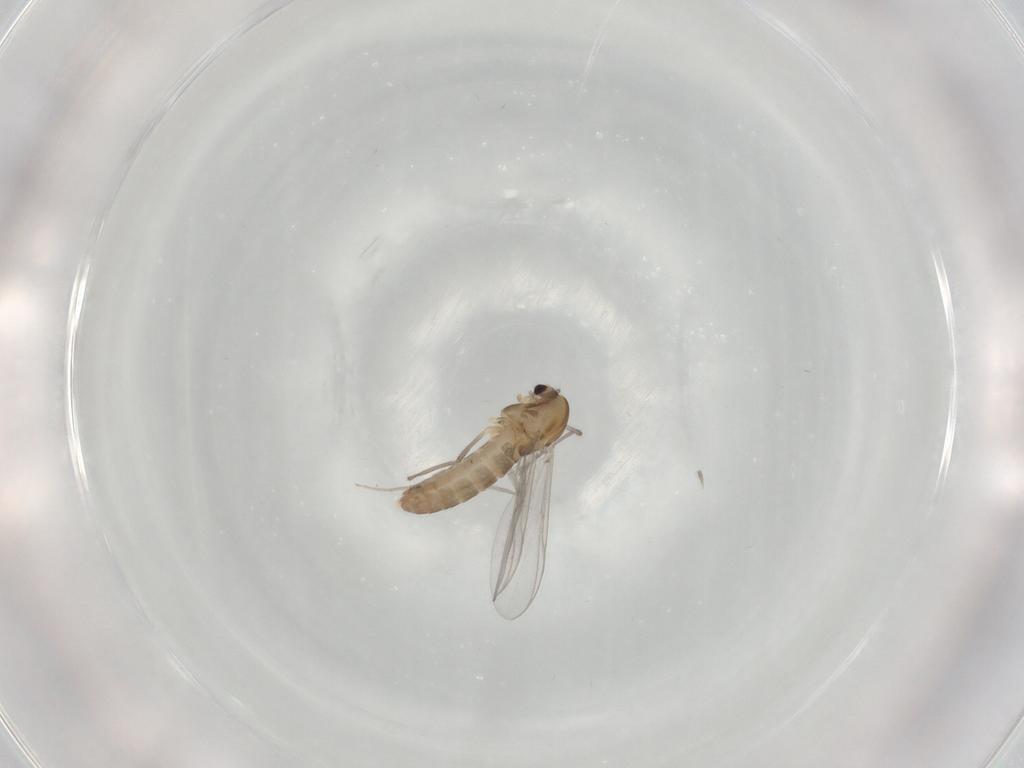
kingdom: Animalia
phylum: Arthropoda
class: Insecta
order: Diptera
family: Chironomidae
